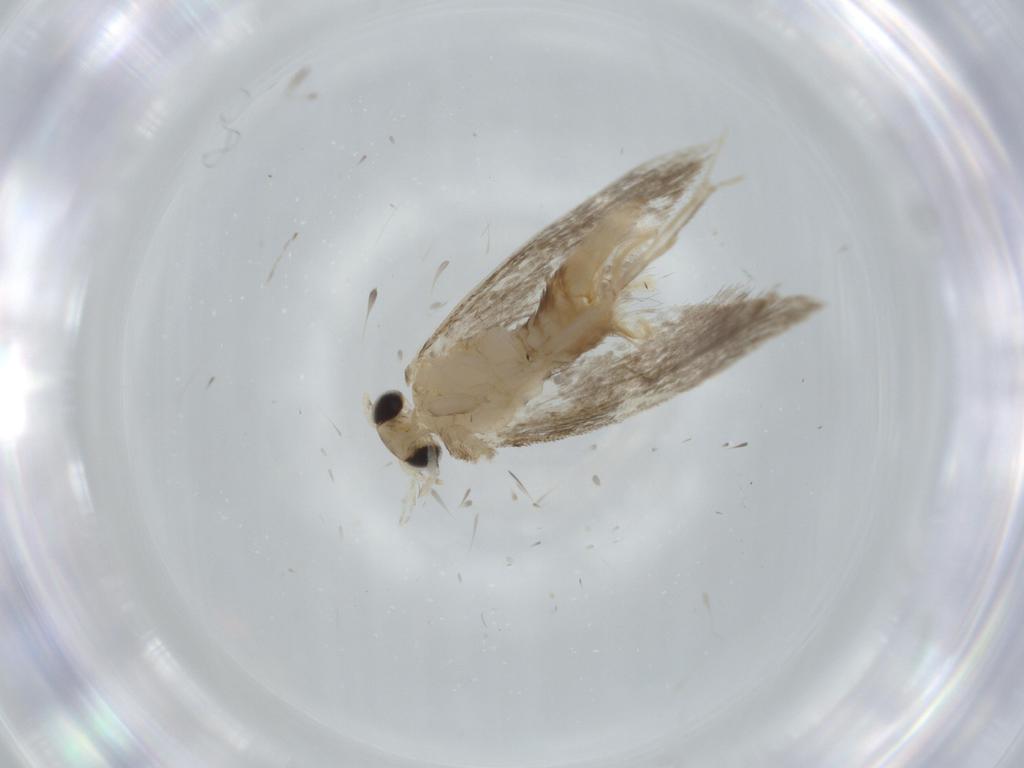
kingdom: Animalia
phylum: Arthropoda
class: Insecta
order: Lepidoptera
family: Tineidae
